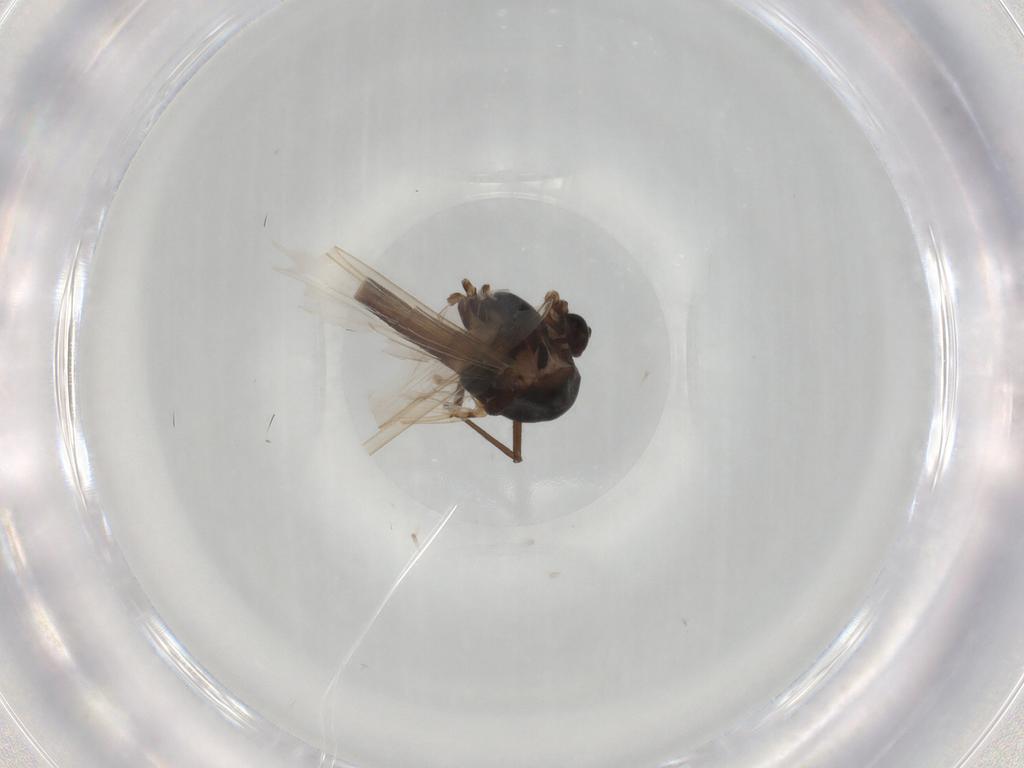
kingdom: Animalia
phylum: Arthropoda
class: Insecta
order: Diptera
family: Chironomidae
